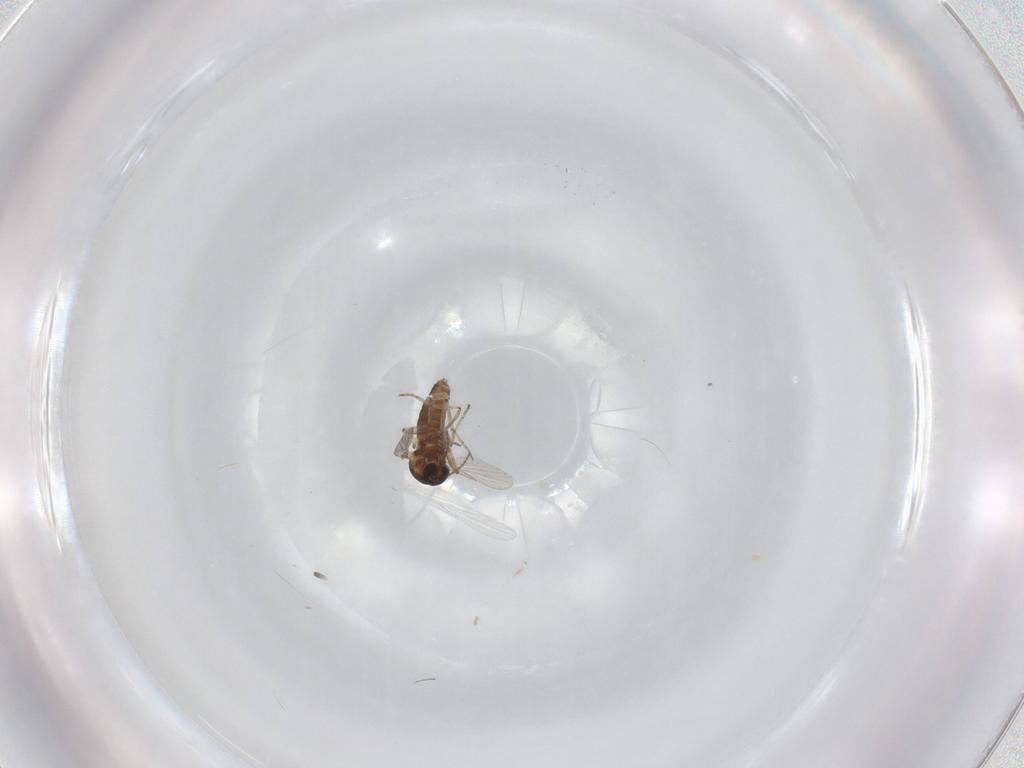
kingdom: Animalia
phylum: Arthropoda
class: Insecta
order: Diptera
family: Ceratopogonidae
